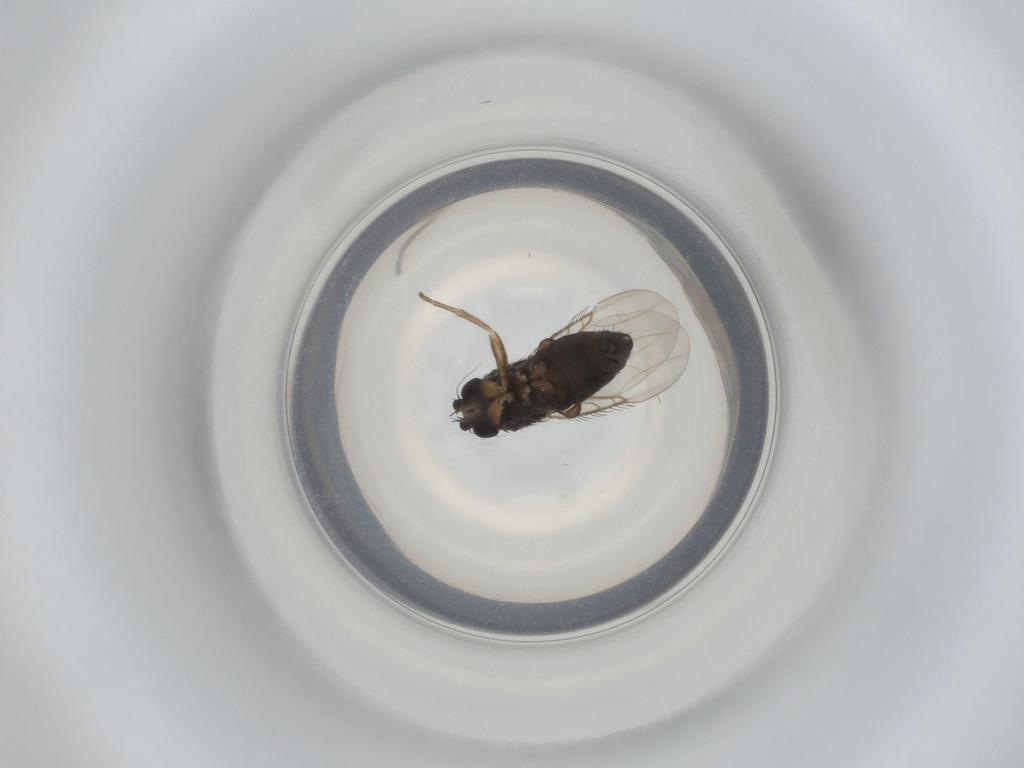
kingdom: Animalia
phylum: Arthropoda
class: Insecta
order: Diptera
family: Phoridae
